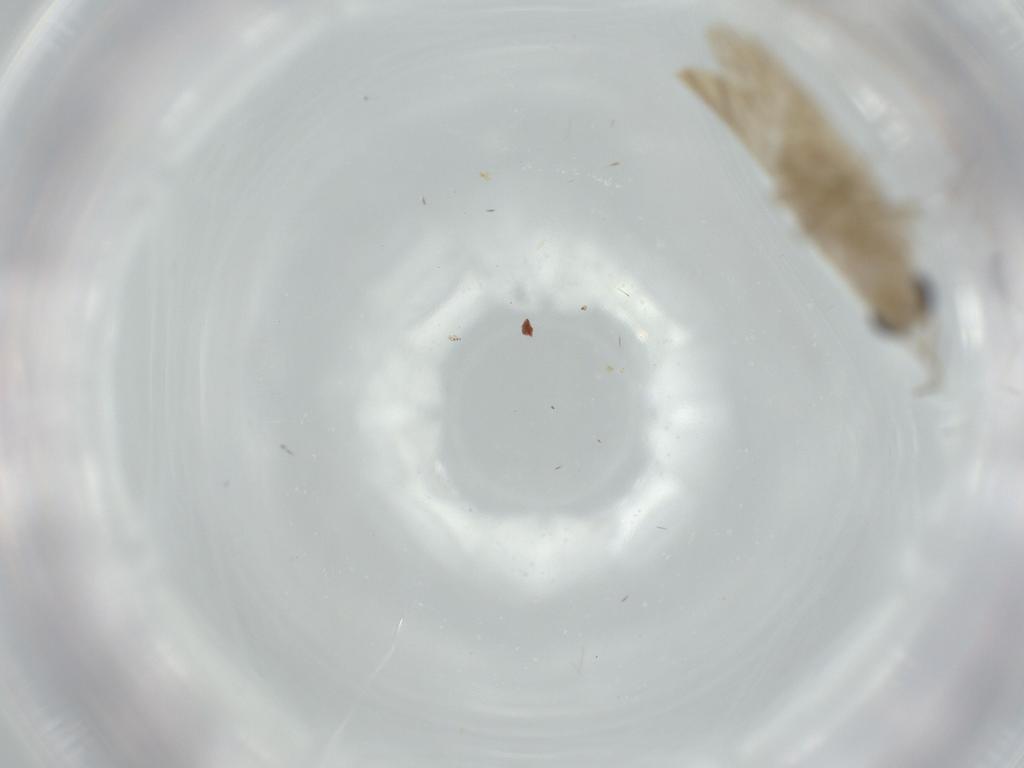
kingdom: Animalia
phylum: Arthropoda
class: Insecta
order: Psocodea
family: Caeciliusidae
